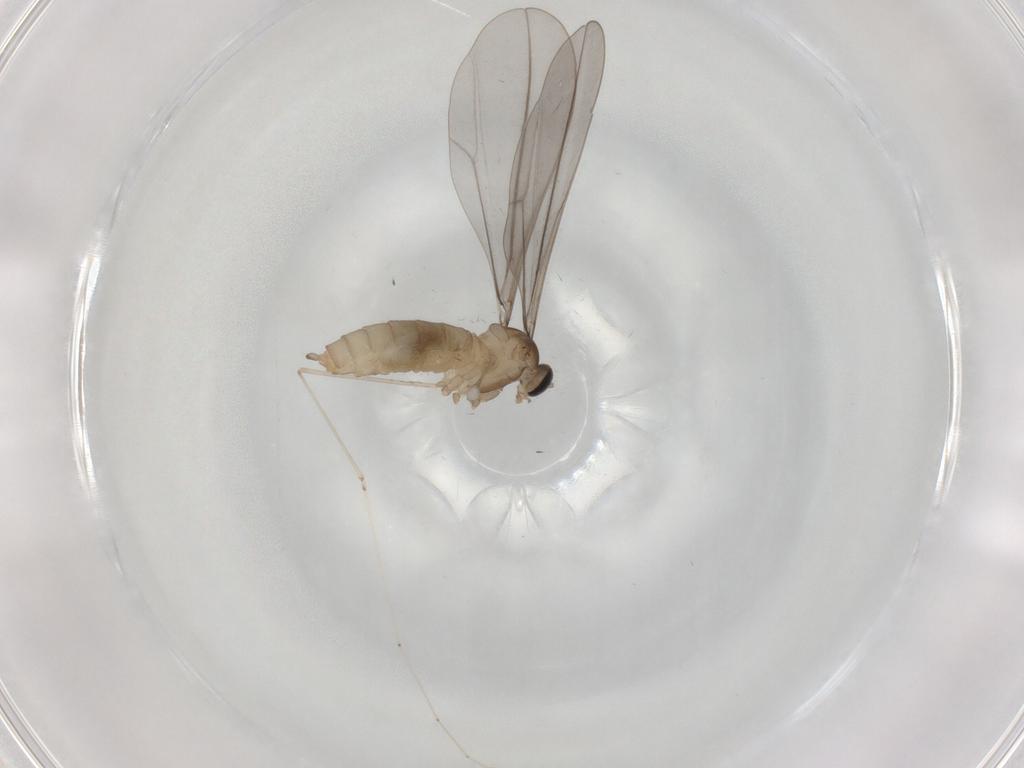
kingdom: Animalia
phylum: Arthropoda
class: Insecta
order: Diptera
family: Cecidomyiidae
